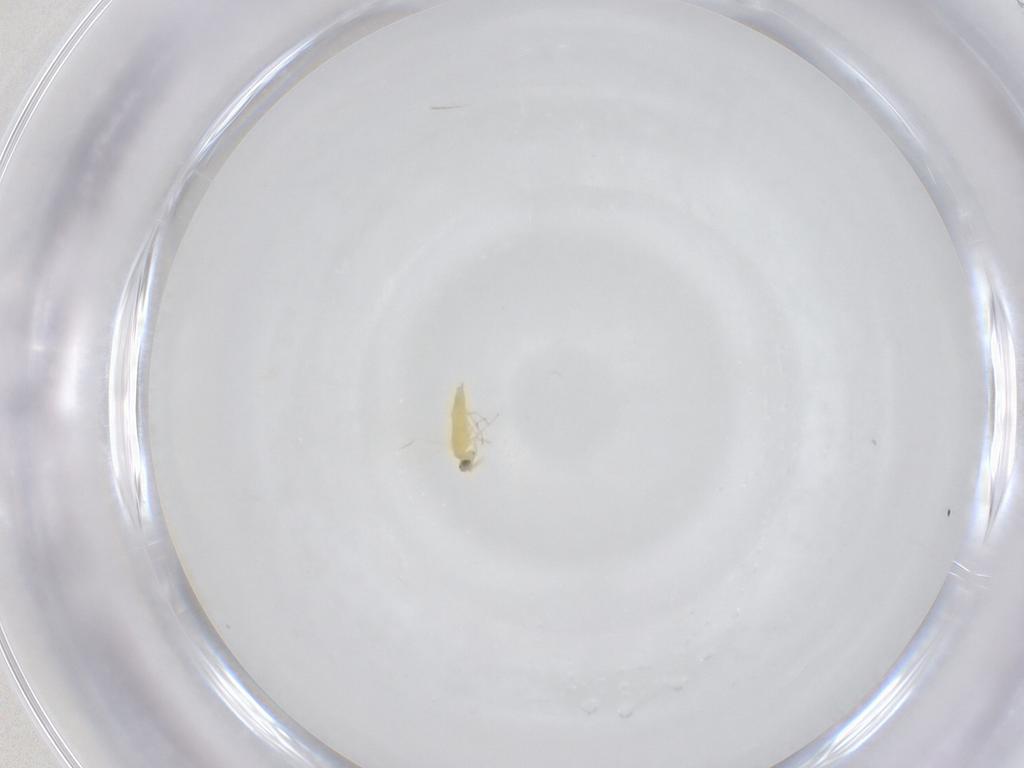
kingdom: Animalia
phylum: Arthropoda
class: Insecta
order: Hymenoptera
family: Aphelinidae
